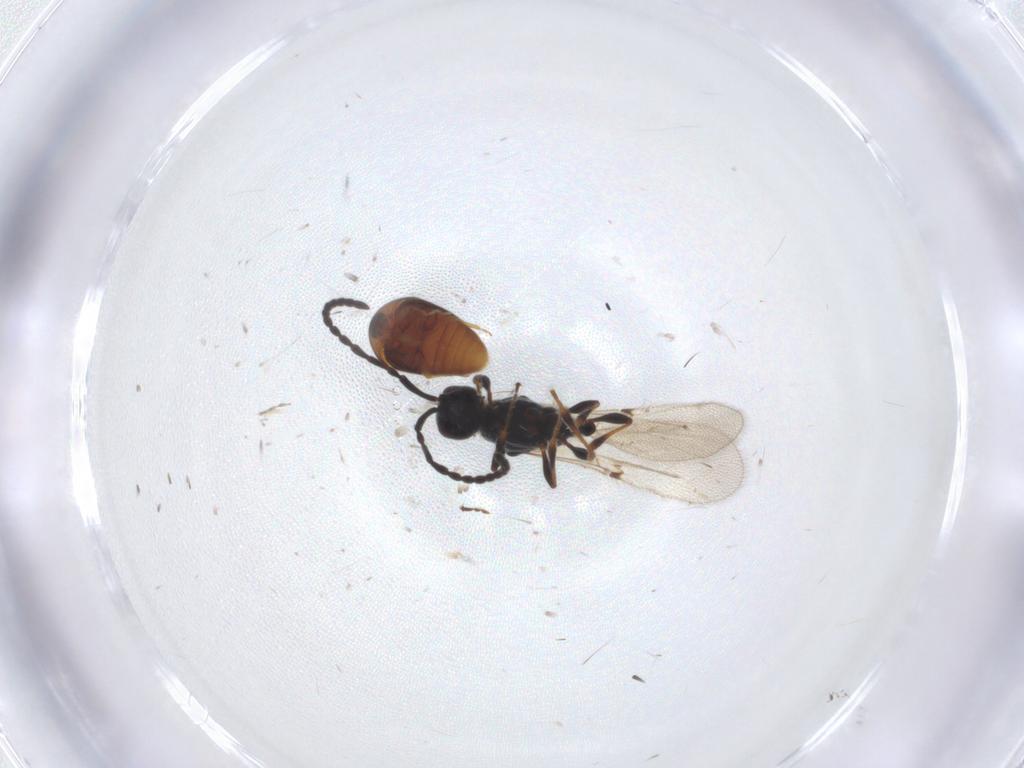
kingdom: Animalia
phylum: Arthropoda
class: Insecta
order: Hymenoptera
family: Diapriidae
